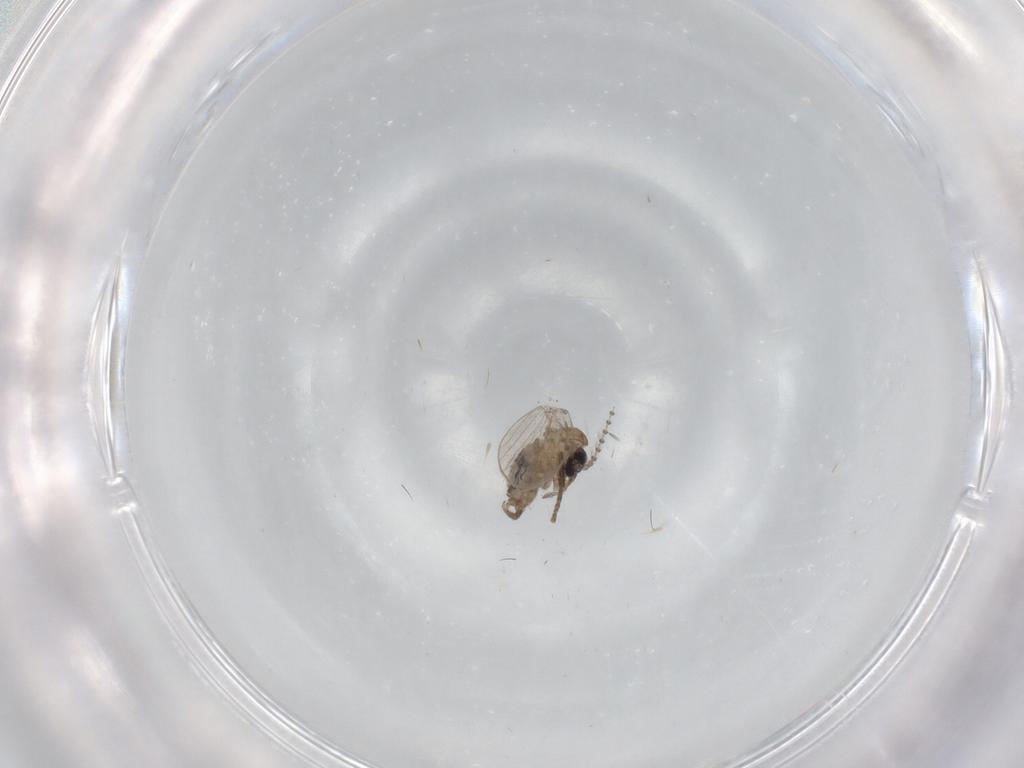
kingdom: Animalia
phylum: Arthropoda
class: Insecta
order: Diptera
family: Psychodidae
